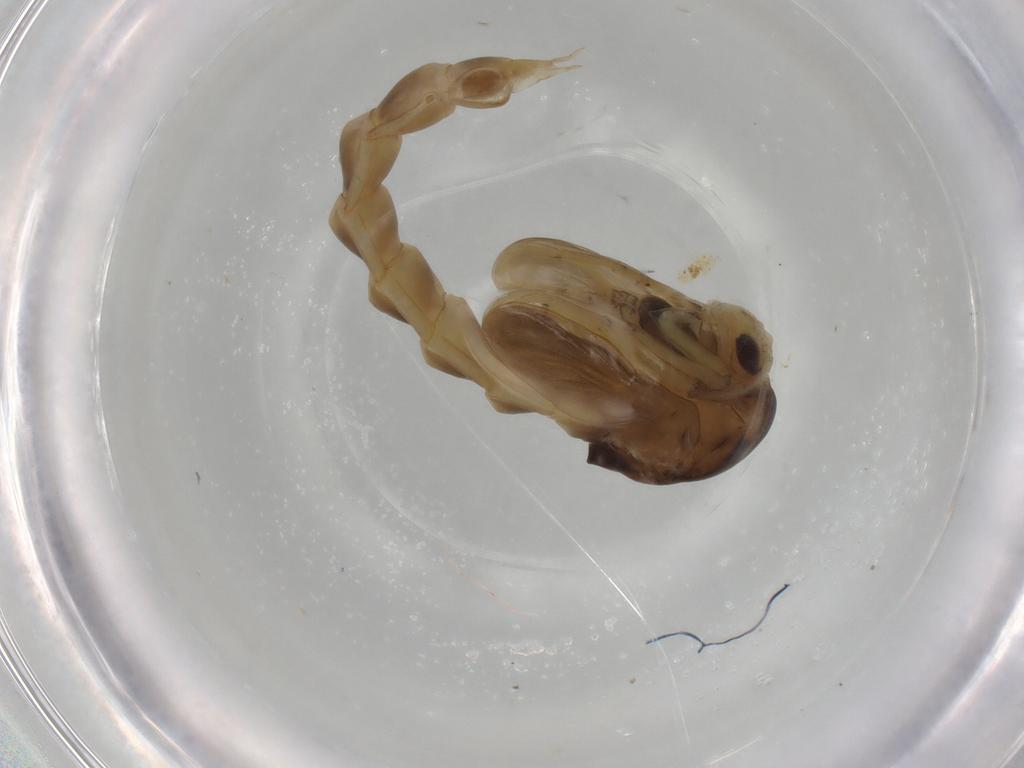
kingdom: Animalia
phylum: Arthropoda
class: Insecta
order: Diptera
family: Chironomidae
